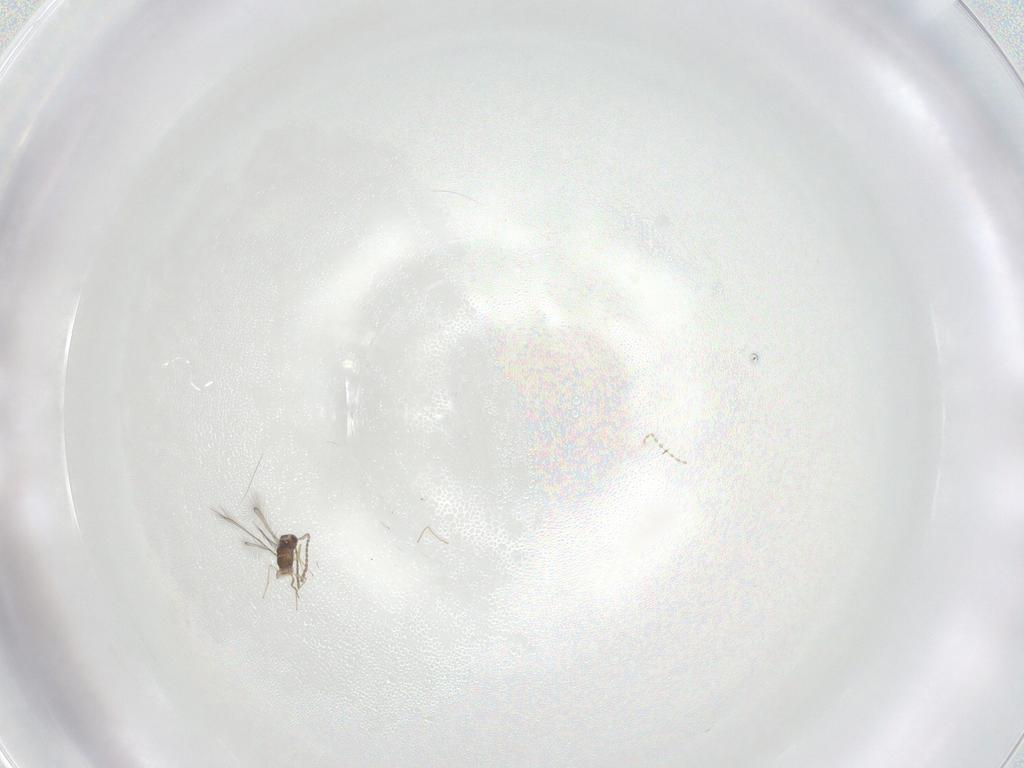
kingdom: Animalia
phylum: Arthropoda
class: Insecta
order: Hymenoptera
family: Mymaridae
